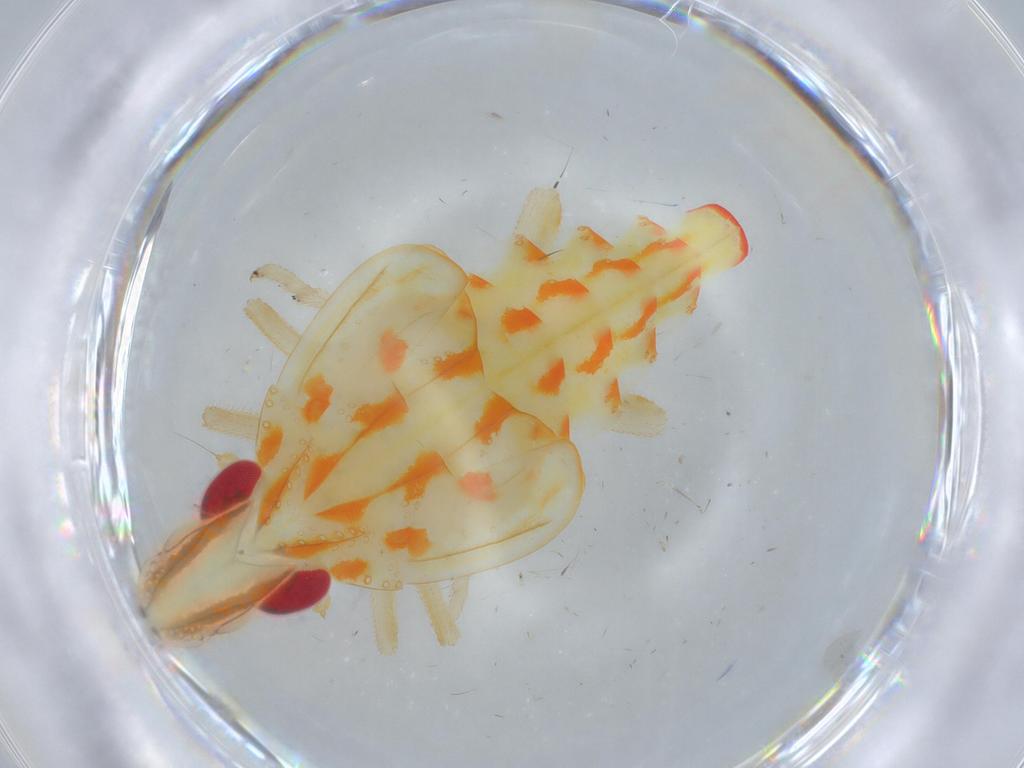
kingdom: Animalia
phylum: Arthropoda
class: Insecta
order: Hemiptera
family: Tropiduchidae
